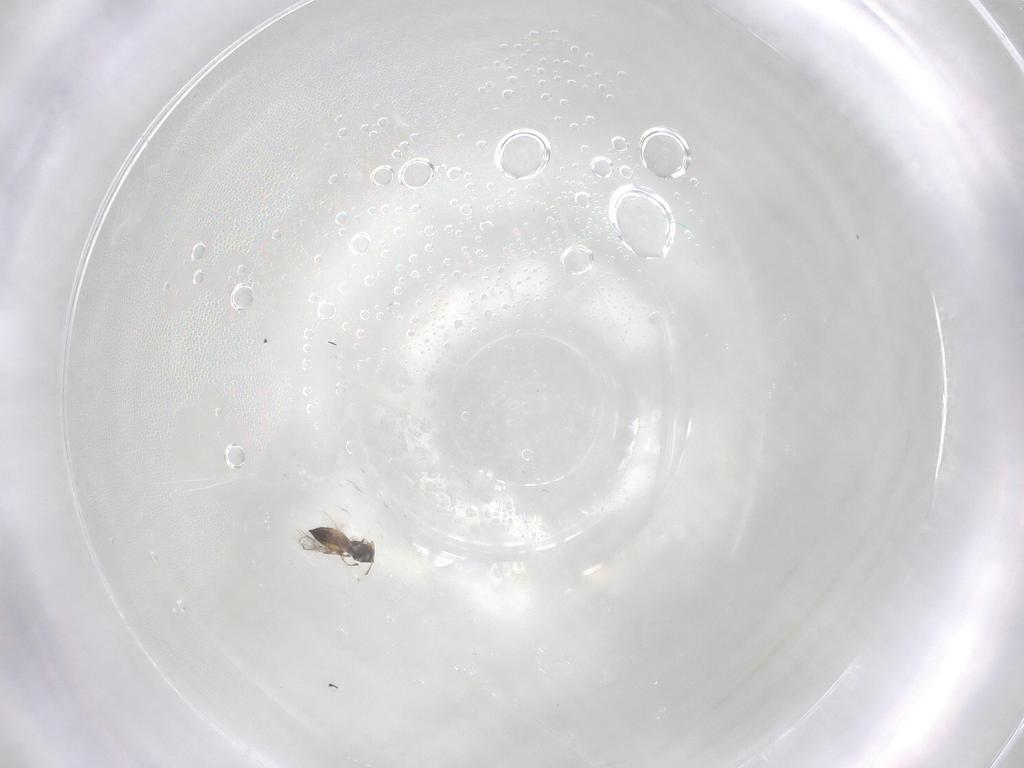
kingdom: Animalia
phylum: Arthropoda
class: Insecta
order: Hymenoptera
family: Eulophidae
